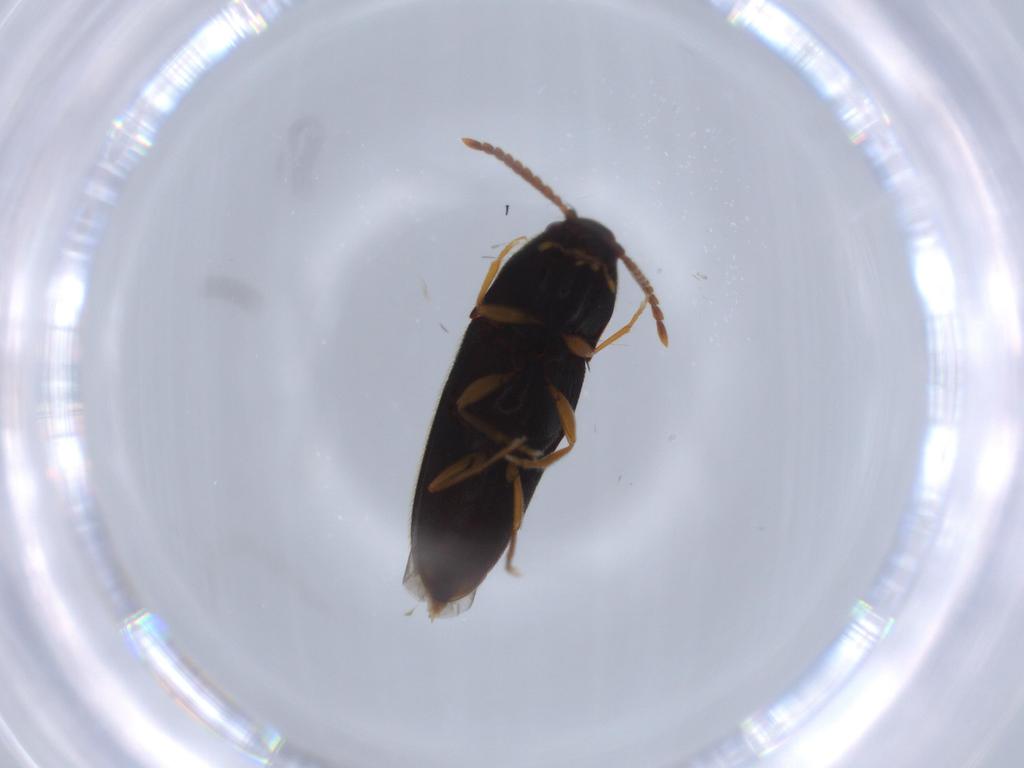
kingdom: Animalia
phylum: Arthropoda
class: Insecta
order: Coleoptera
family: Elateridae
